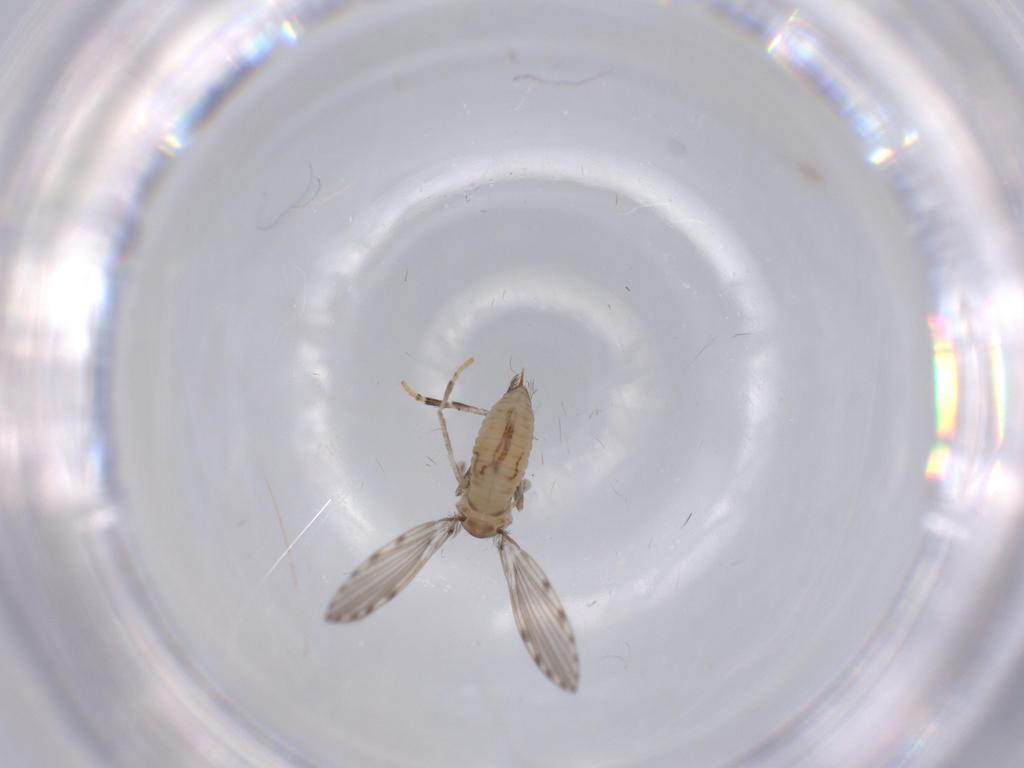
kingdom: Animalia
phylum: Arthropoda
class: Insecta
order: Diptera
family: Psychodidae
